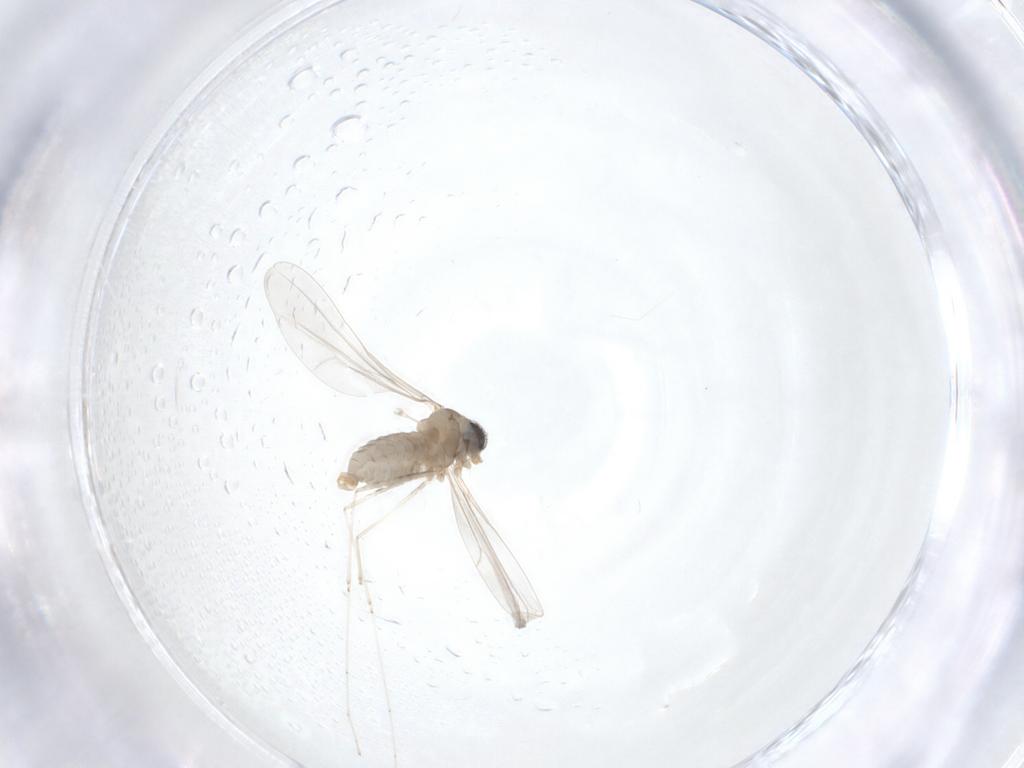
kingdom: Animalia
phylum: Arthropoda
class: Insecta
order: Diptera
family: Cecidomyiidae
